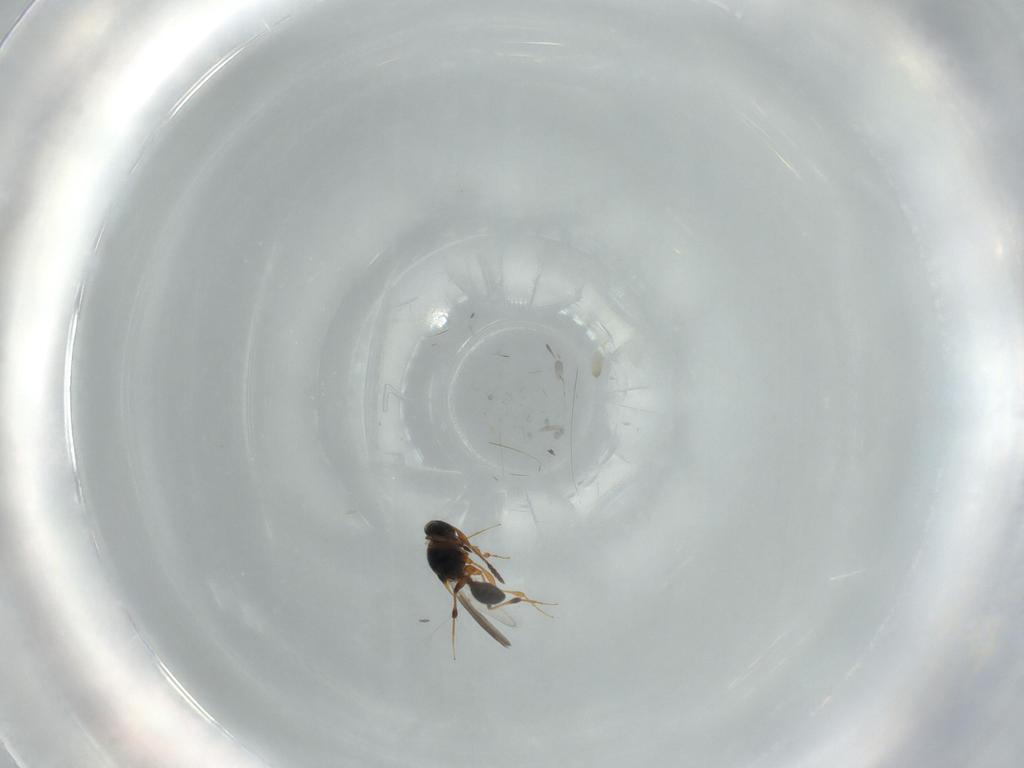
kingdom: Animalia
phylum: Arthropoda
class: Insecta
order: Hymenoptera
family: Platygastridae
